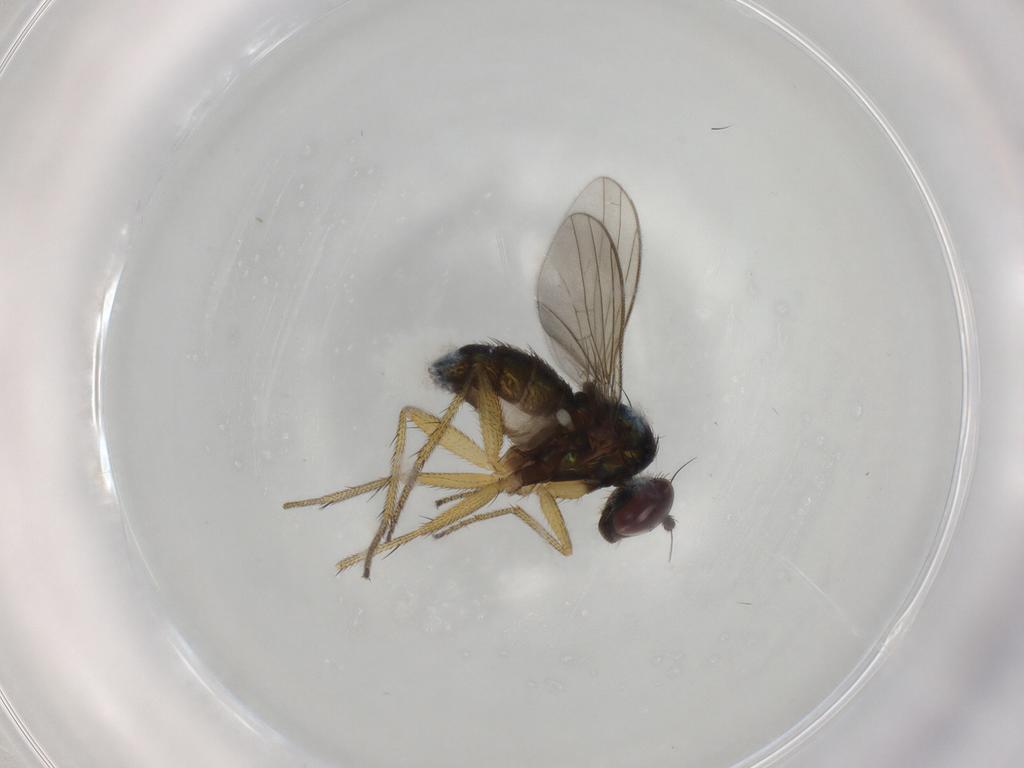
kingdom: Animalia
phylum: Arthropoda
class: Insecta
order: Diptera
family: Dolichopodidae
